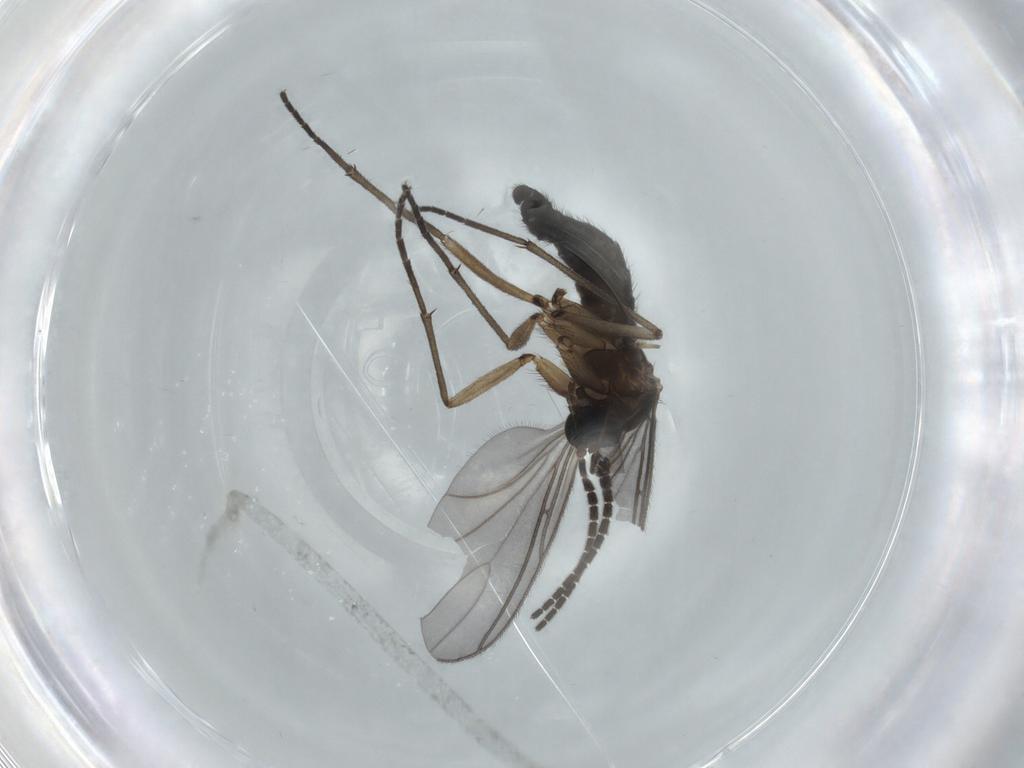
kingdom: Animalia
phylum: Arthropoda
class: Insecta
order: Diptera
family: Sciaridae
